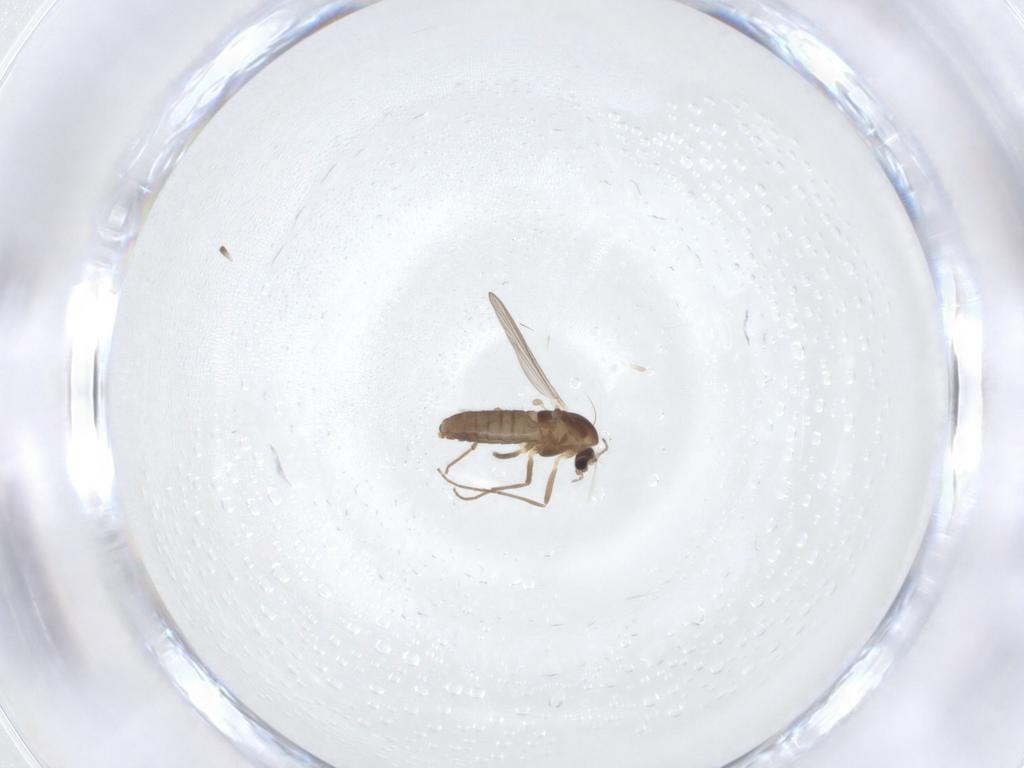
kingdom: Animalia
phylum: Arthropoda
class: Insecta
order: Diptera
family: Chironomidae
